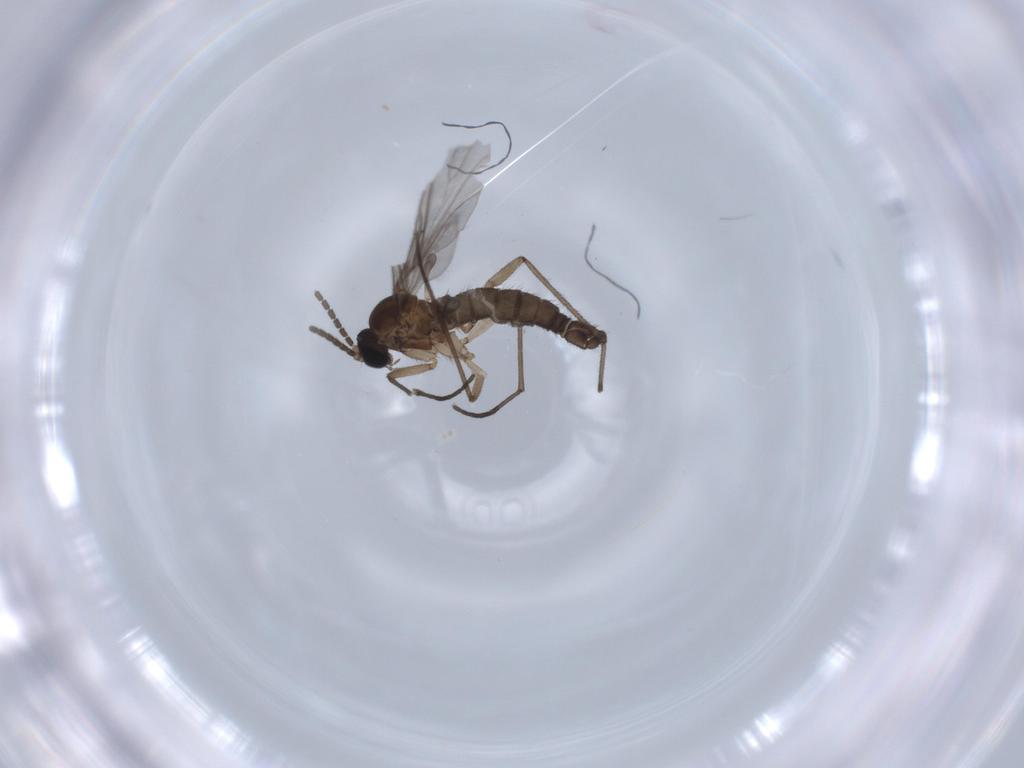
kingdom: Animalia
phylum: Arthropoda
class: Insecta
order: Diptera
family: Sciaridae
